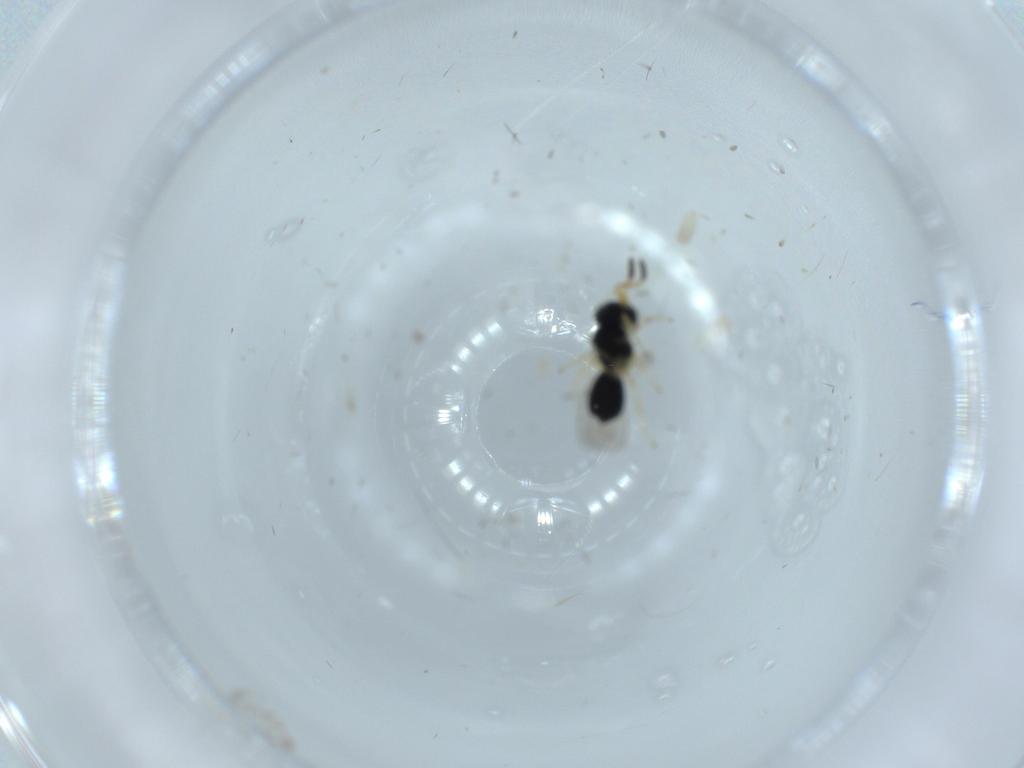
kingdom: Animalia
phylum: Arthropoda
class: Insecta
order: Hymenoptera
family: Scelionidae
